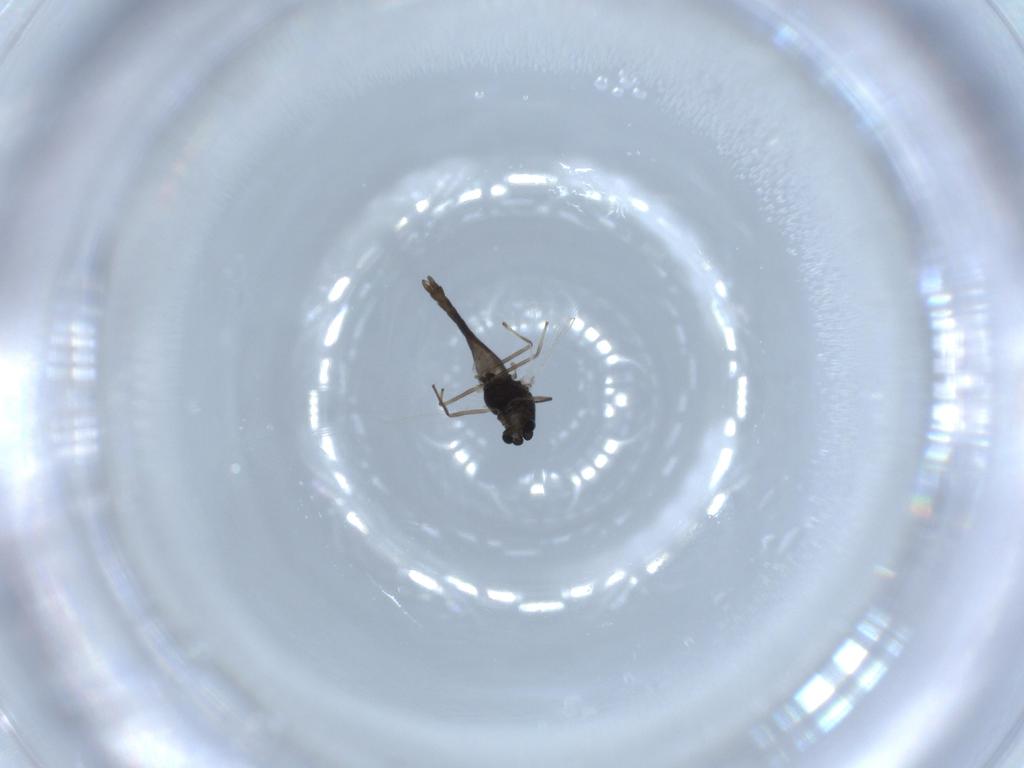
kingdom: Animalia
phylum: Arthropoda
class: Insecta
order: Diptera
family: Chironomidae
